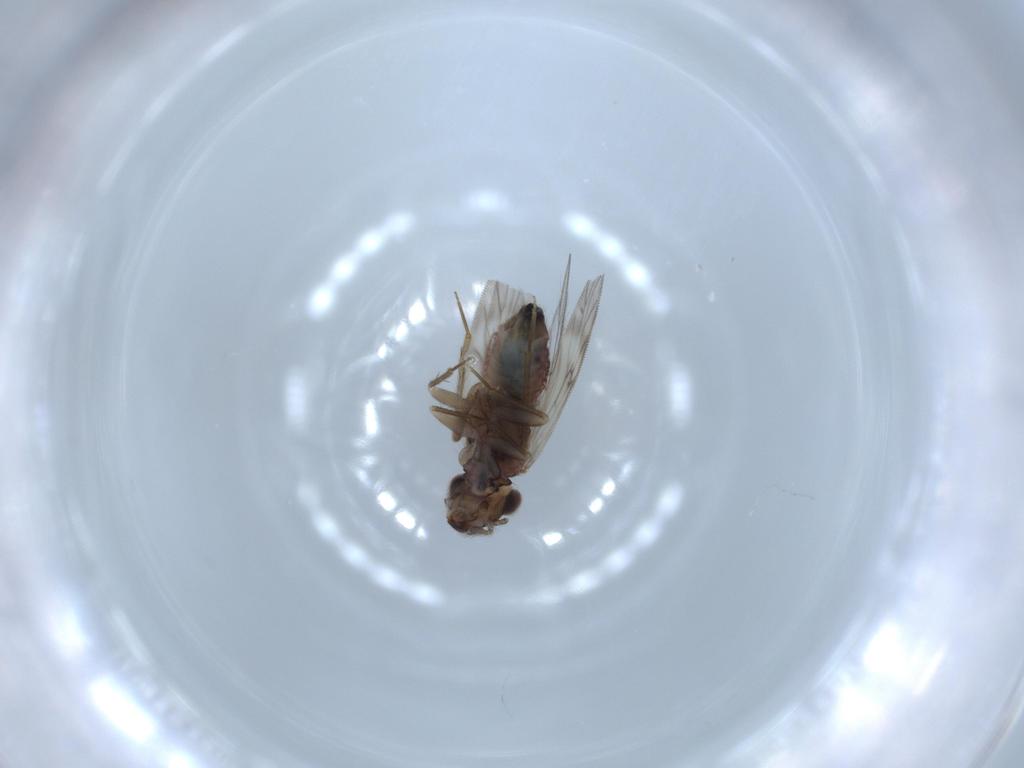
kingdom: Animalia
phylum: Arthropoda
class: Insecta
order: Psocodea
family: Lepidopsocidae
